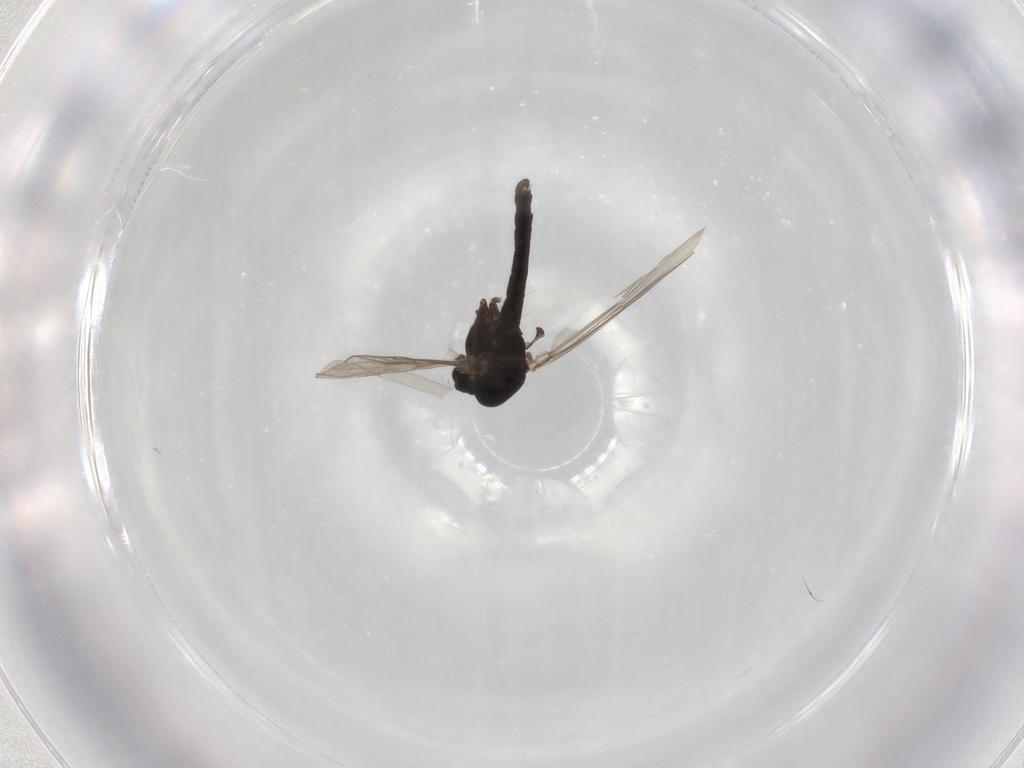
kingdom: Animalia
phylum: Arthropoda
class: Insecta
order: Diptera
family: Chironomidae
